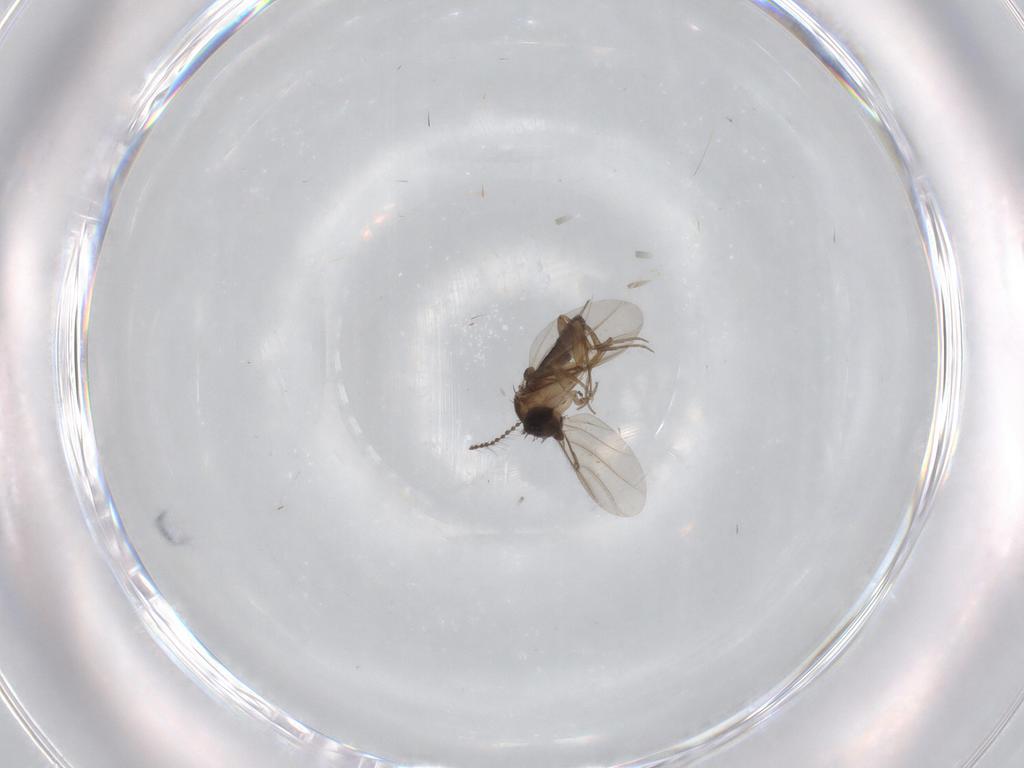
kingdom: Animalia
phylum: Arthropoda
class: Insecta
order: Diptera
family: Phoridae
